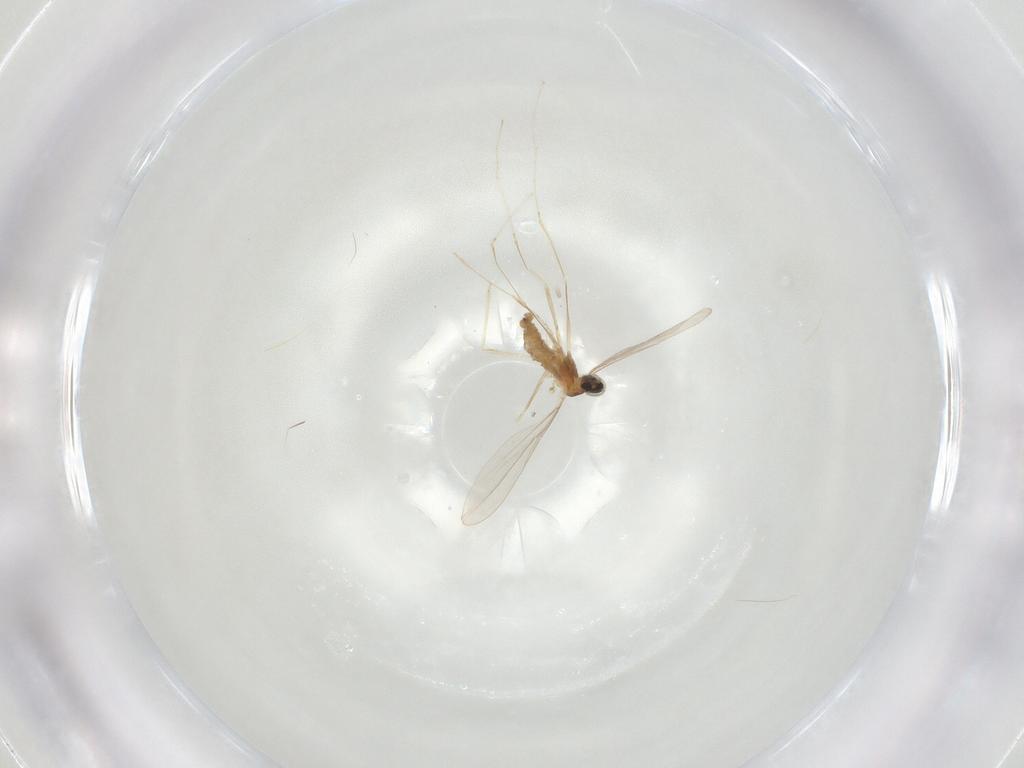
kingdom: Animalia
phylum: Arthropoda
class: Insecta
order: Diptera
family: Cecidomyiidae
